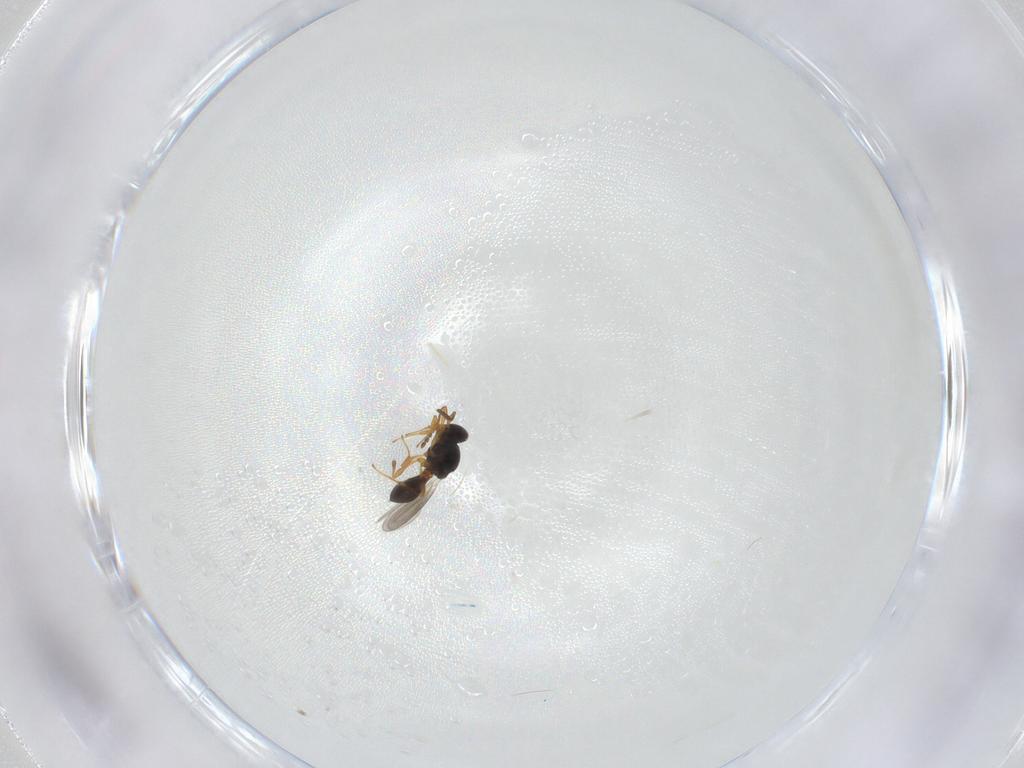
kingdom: Animalia
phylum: Arthropoda
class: Insecta
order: Hymenoptera
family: Platygastridae
